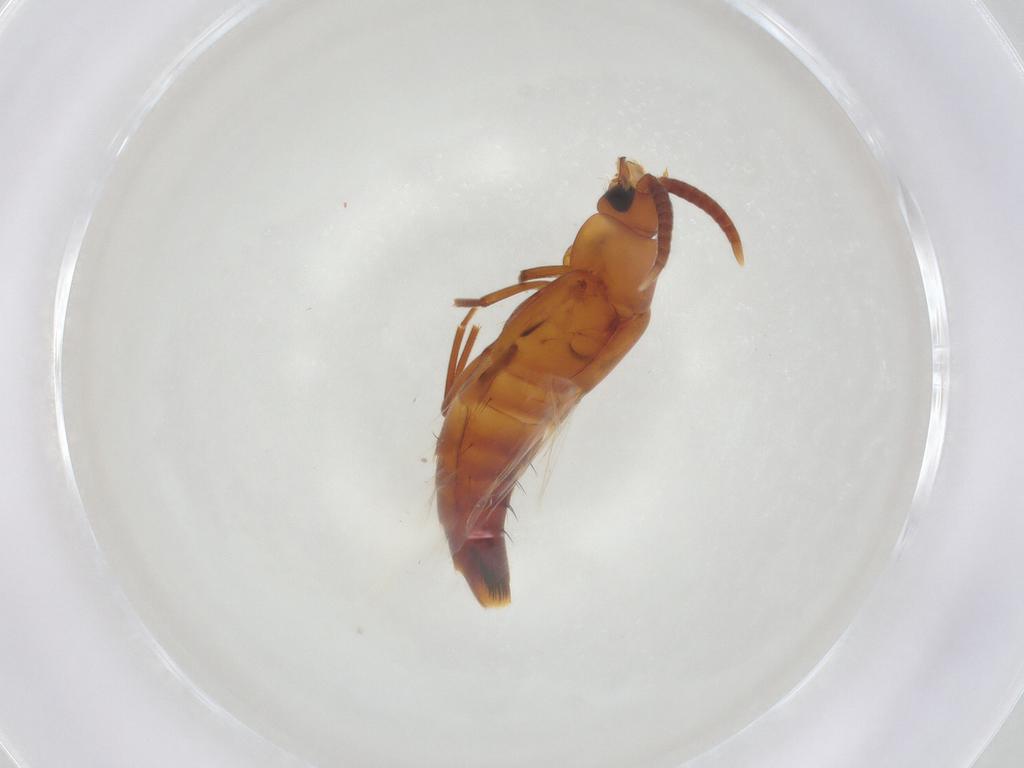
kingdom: Animalia
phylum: Arthropoda
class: Insecta
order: Coleoptera
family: Staphylinidae
